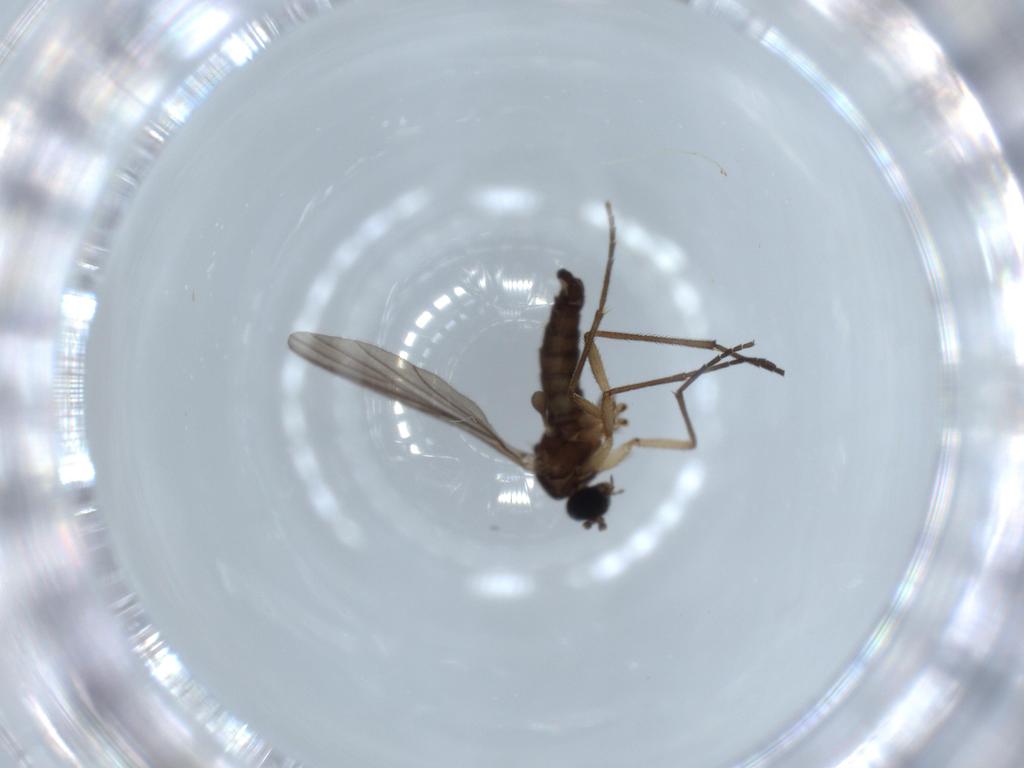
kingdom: Animalia
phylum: Arthropoda
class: Insecta
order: Diptera
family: Sciaridae
